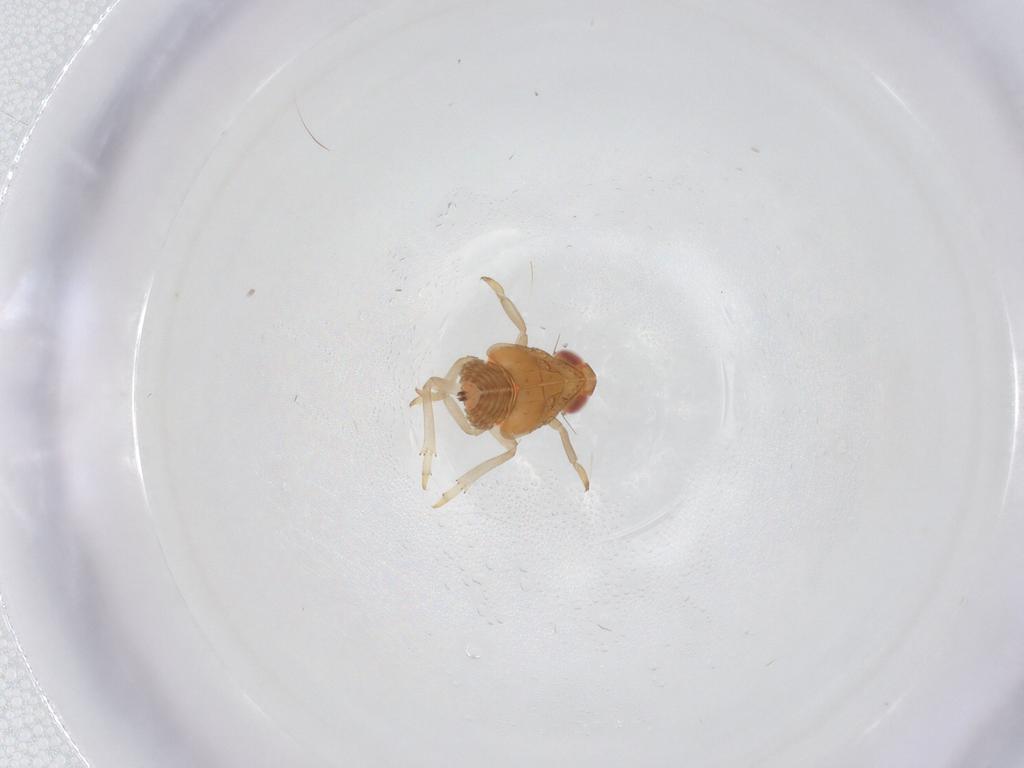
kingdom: Animalia
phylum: Arthropoda
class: Insecta
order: Hemiptera
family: Fulgoroidea_incertae_sedis
